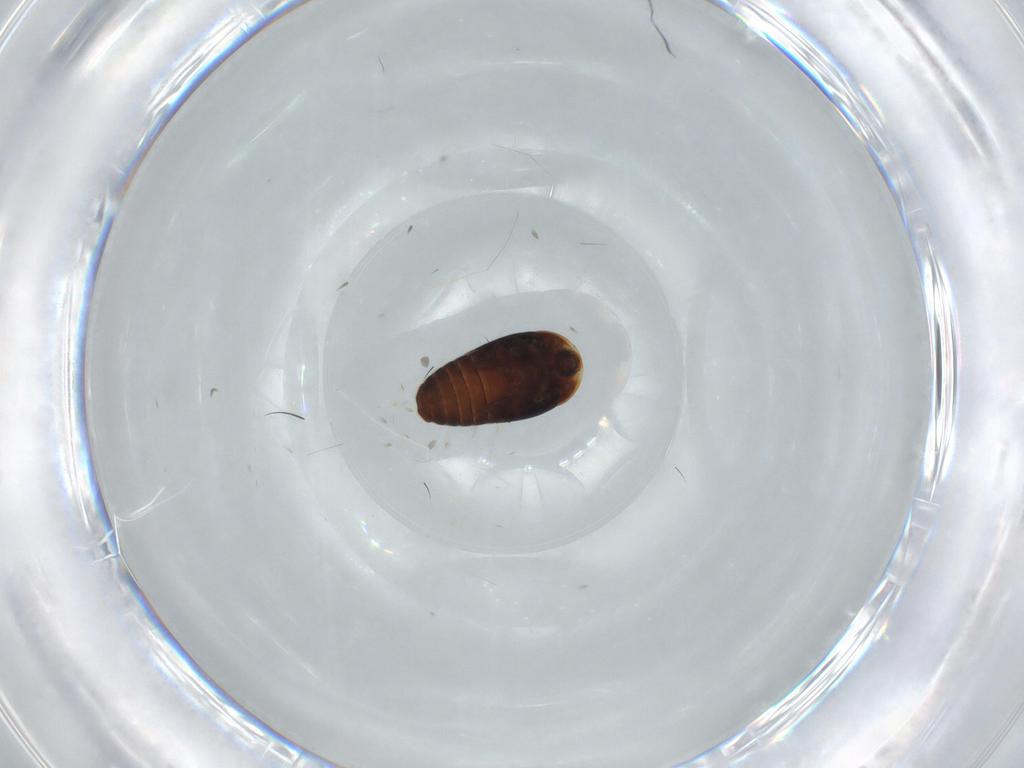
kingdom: Animalia
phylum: Arthropoda
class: Insecta
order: Coleoptera
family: Corylophidae
